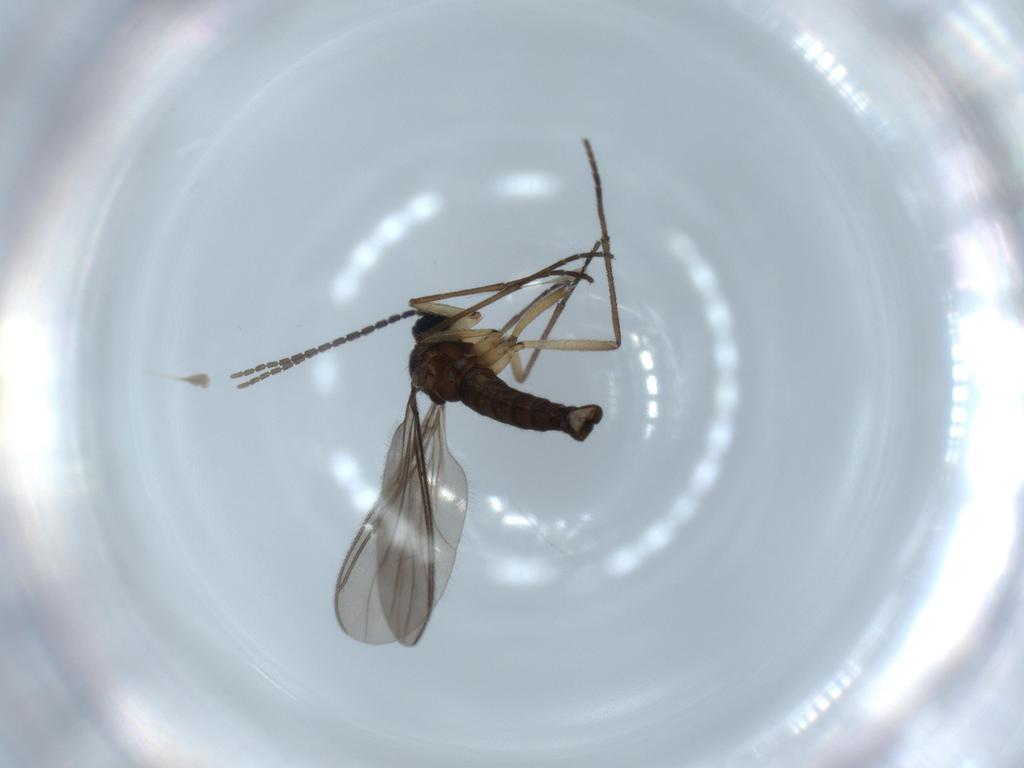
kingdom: Animalia
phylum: Arthropoda
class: Insecta
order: Diptera
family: Sciaridae
